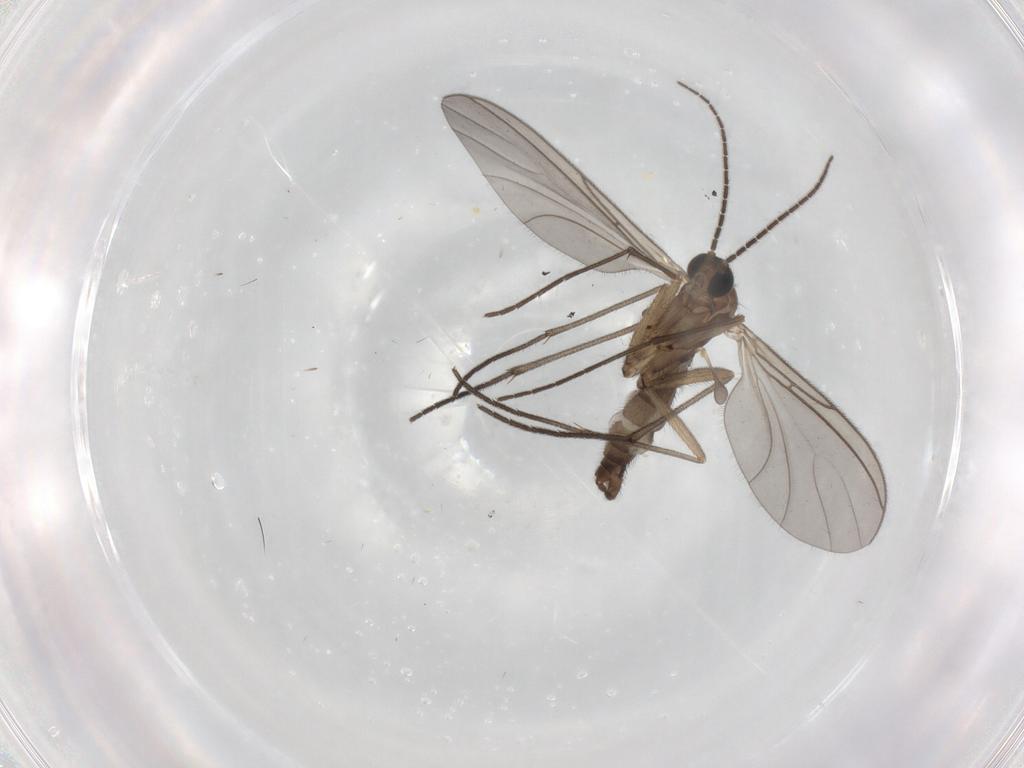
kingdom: Animalia
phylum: Arthropoda
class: Insecta
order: Diptera
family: Sciaridae
